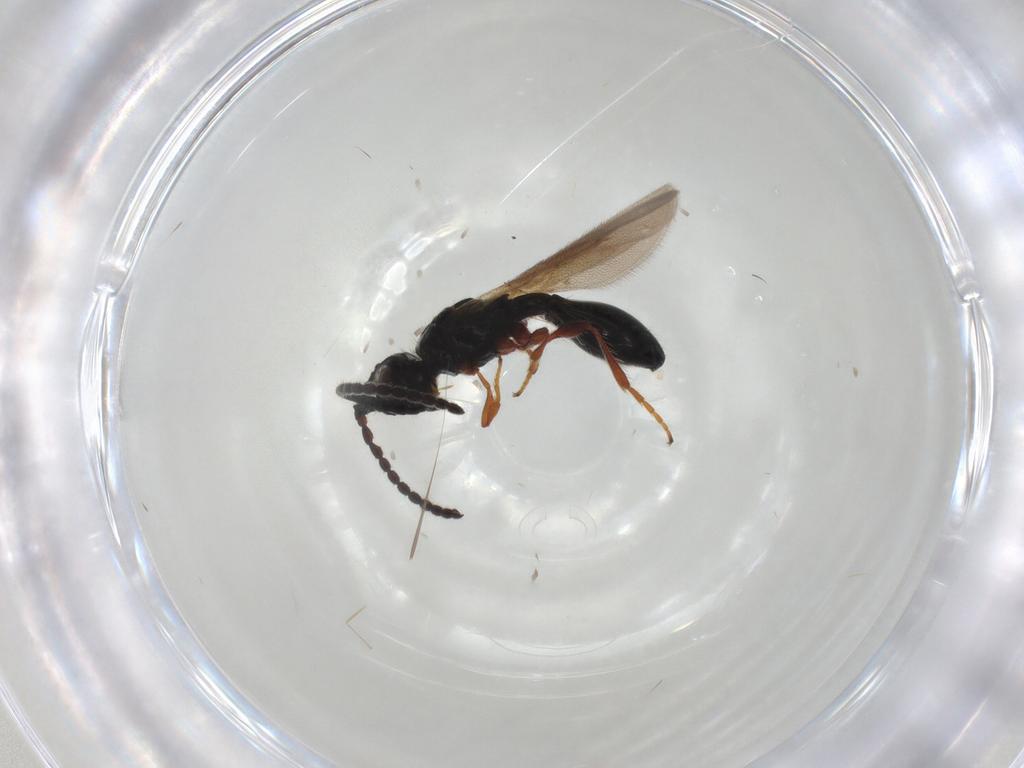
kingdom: Animalia
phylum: Arthropoda
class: Insecta
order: Hymenoptera
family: Diapriidae
